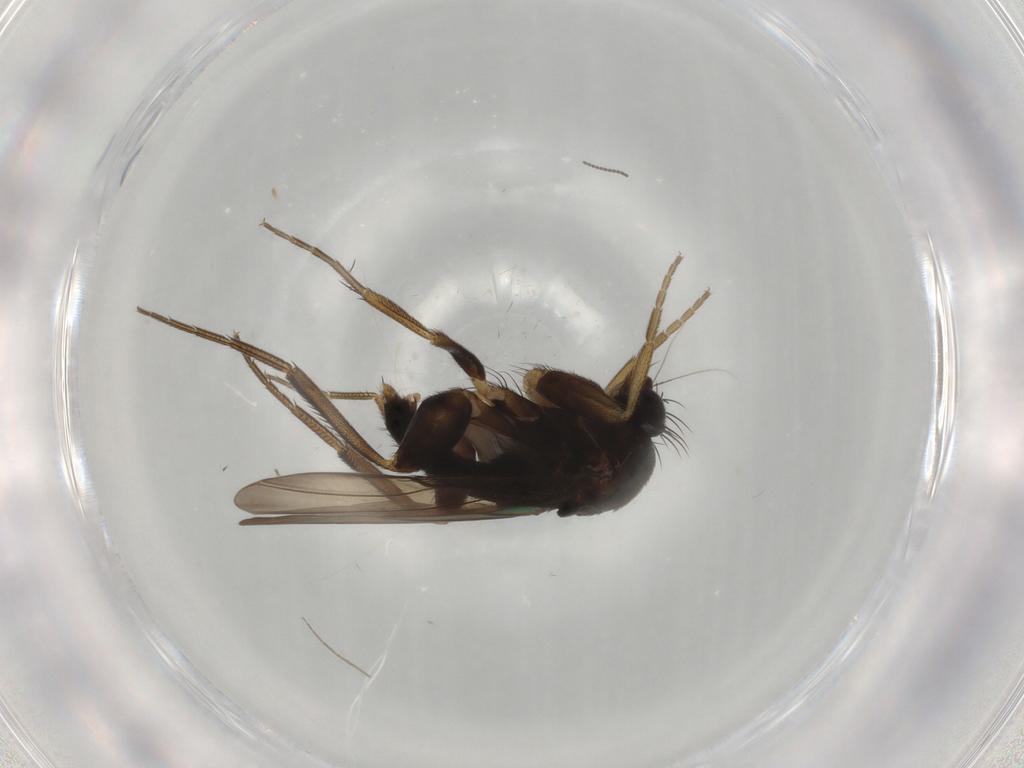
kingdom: Animalia
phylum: Arthropoda
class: Insecta
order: Diptera
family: Phoridae
